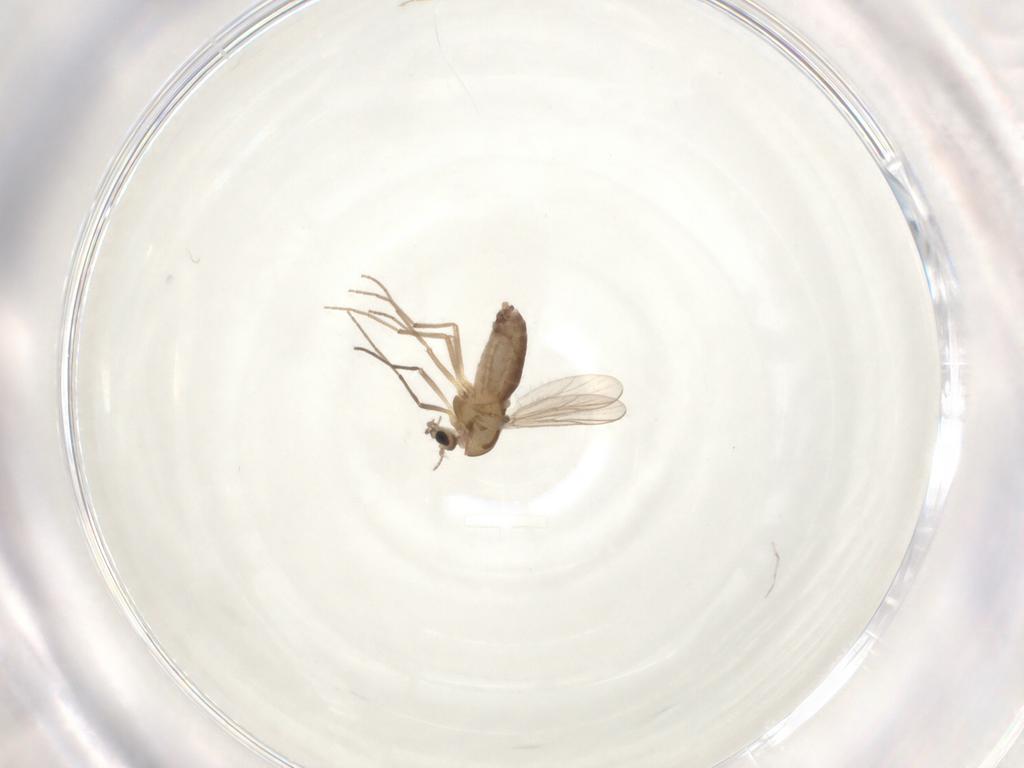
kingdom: Animalia
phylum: Arthropoda
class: Insecta
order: Diptera
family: Chironomidae
